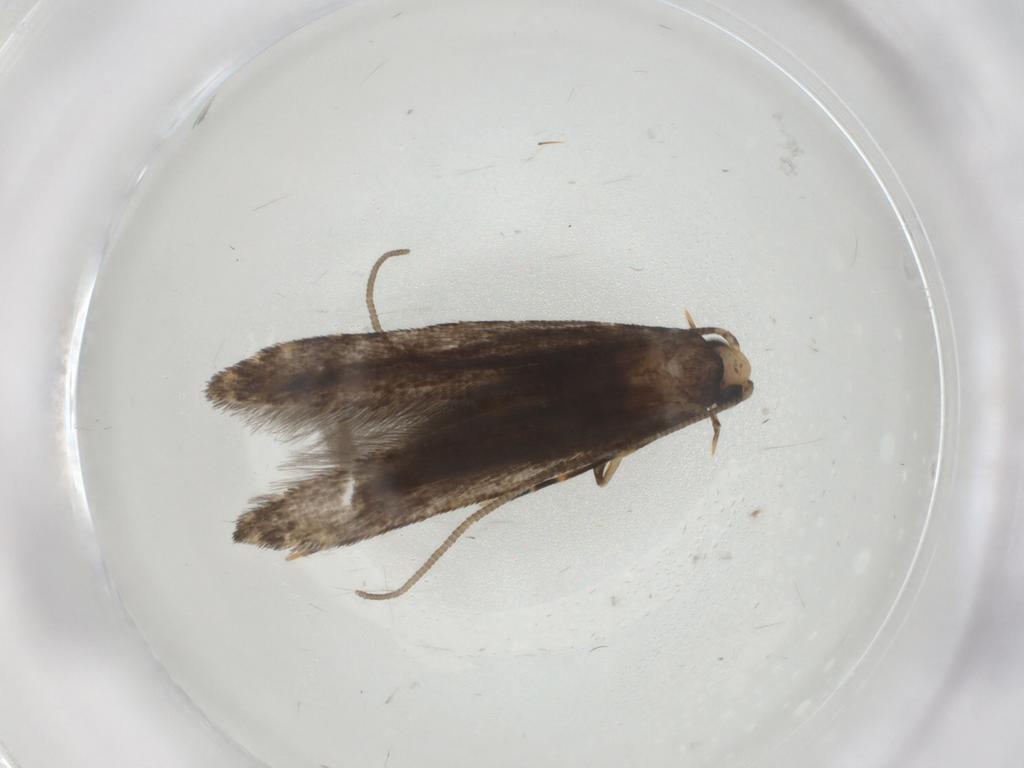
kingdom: Animalia
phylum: Arthropoda
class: Insecta
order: Lepidoptera
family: Tineidae
